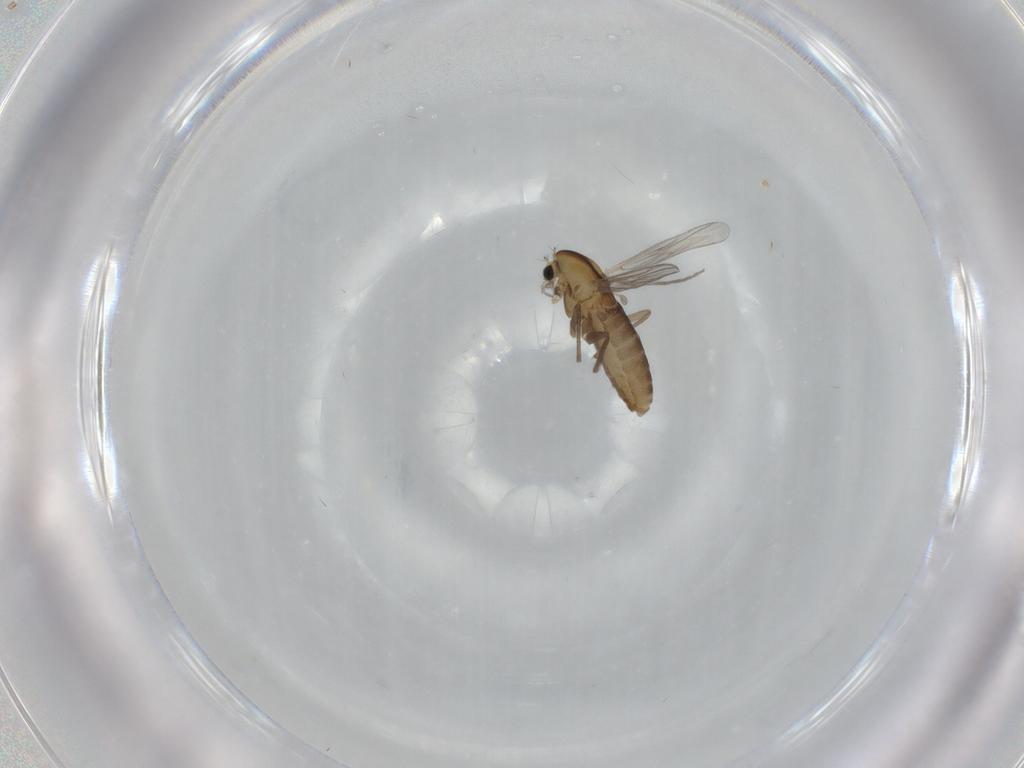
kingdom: Animalia
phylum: Arthropoda
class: Insecta
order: Diptera
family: Chironomidae
